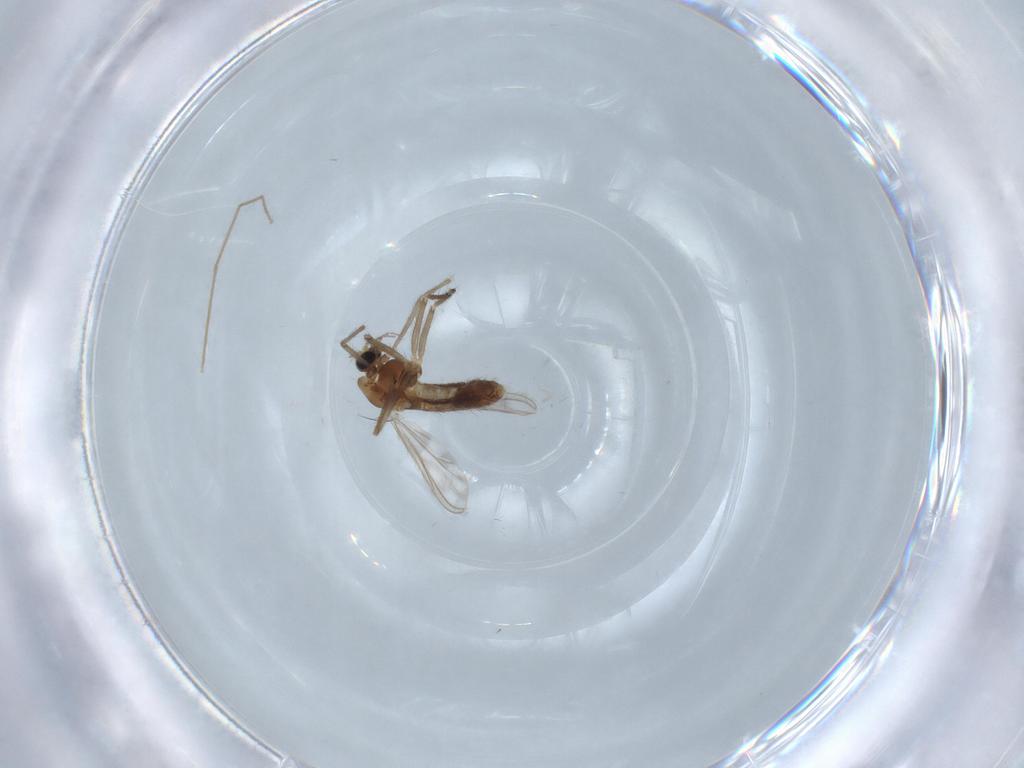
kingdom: Animalia
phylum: Arthropoda
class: Insecta
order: Diptera
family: Chironomidae
